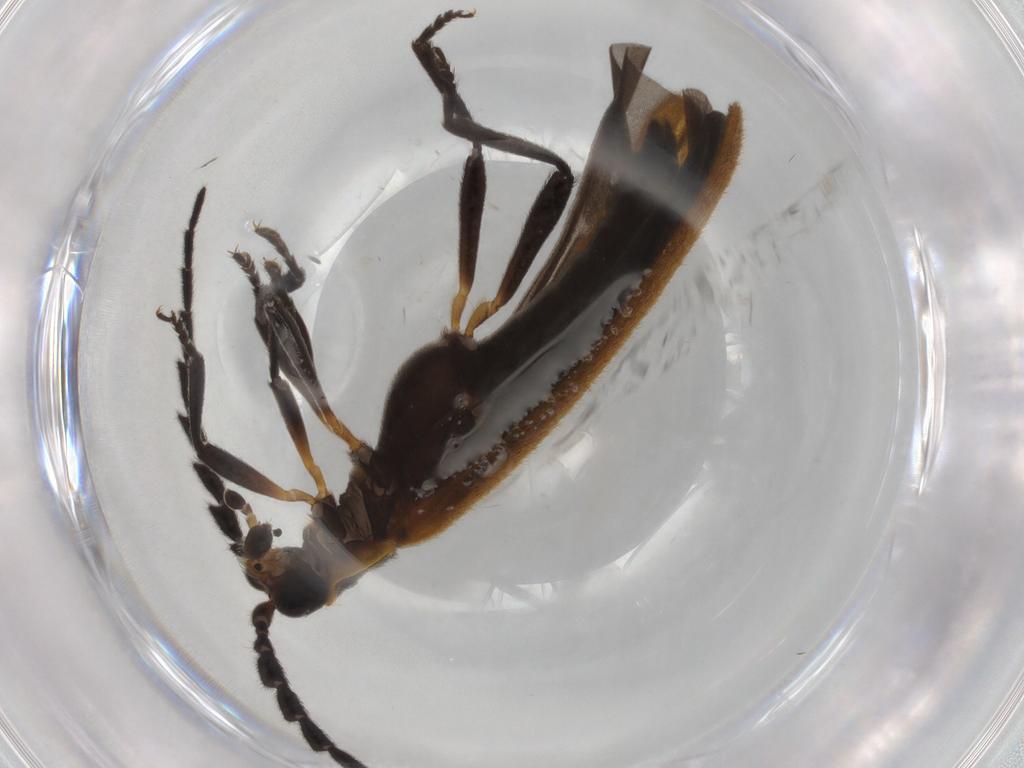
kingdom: Animalia
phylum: Arthropoda
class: Insecta
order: Coleoptera
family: Lycidae
